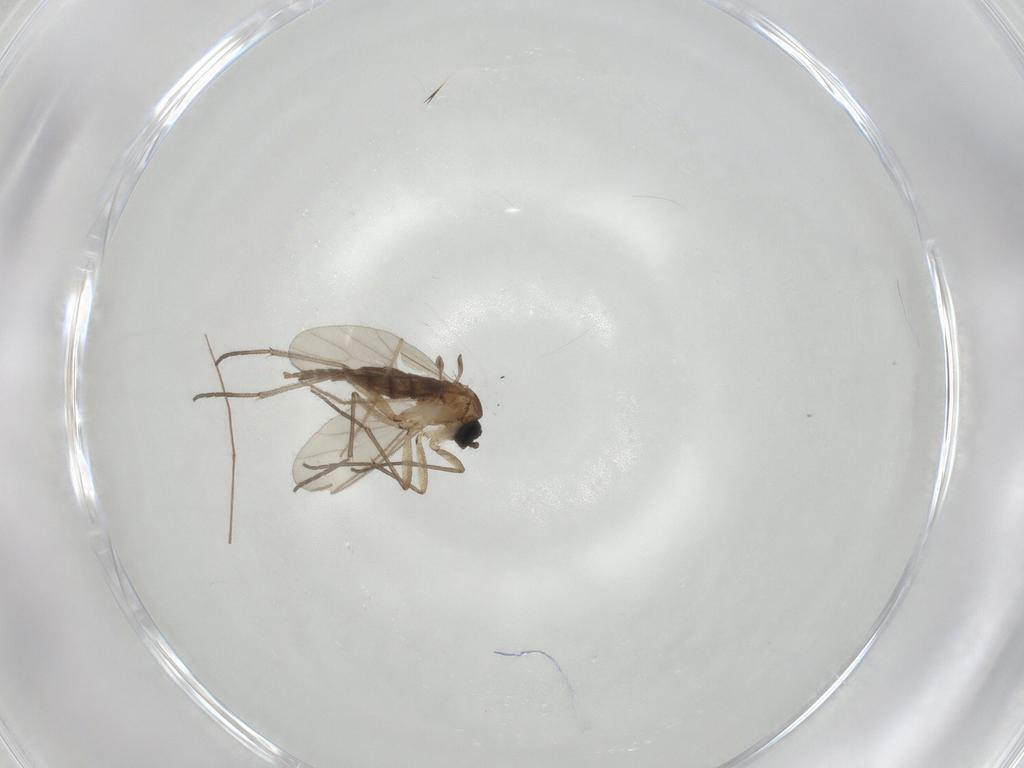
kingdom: Animalia
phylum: Arthropoda
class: Insecta
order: Diptera
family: Sciaridae
